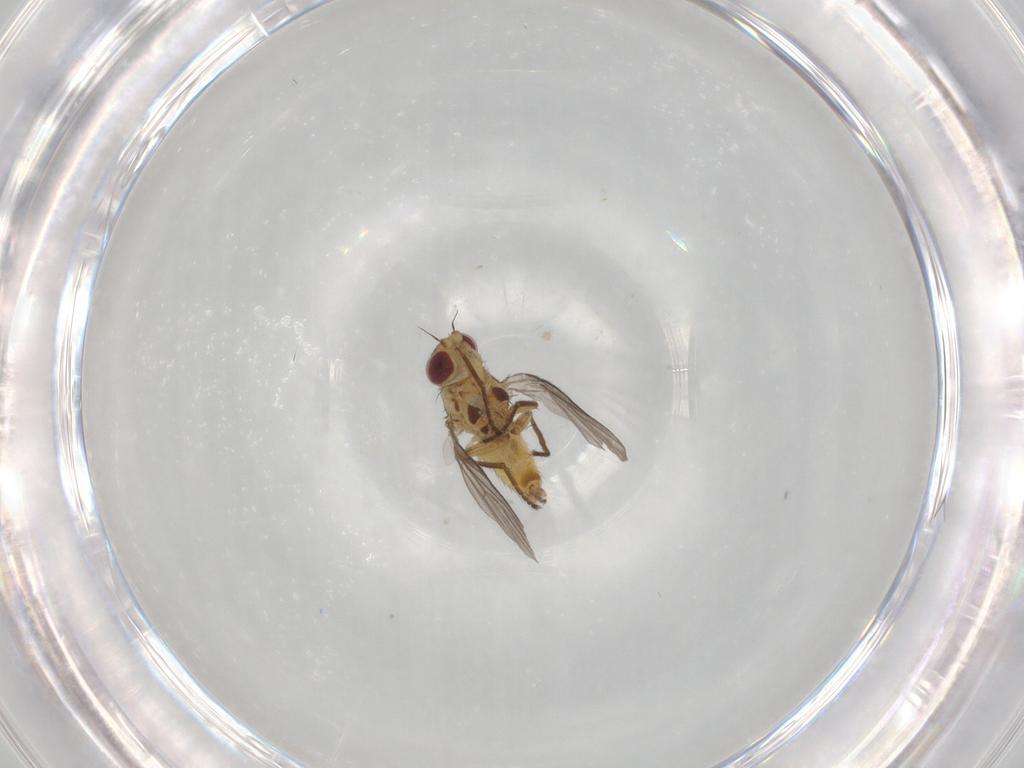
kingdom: Animalia
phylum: Arthropoda
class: Insecta
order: Diptera
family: Agromyzidae
